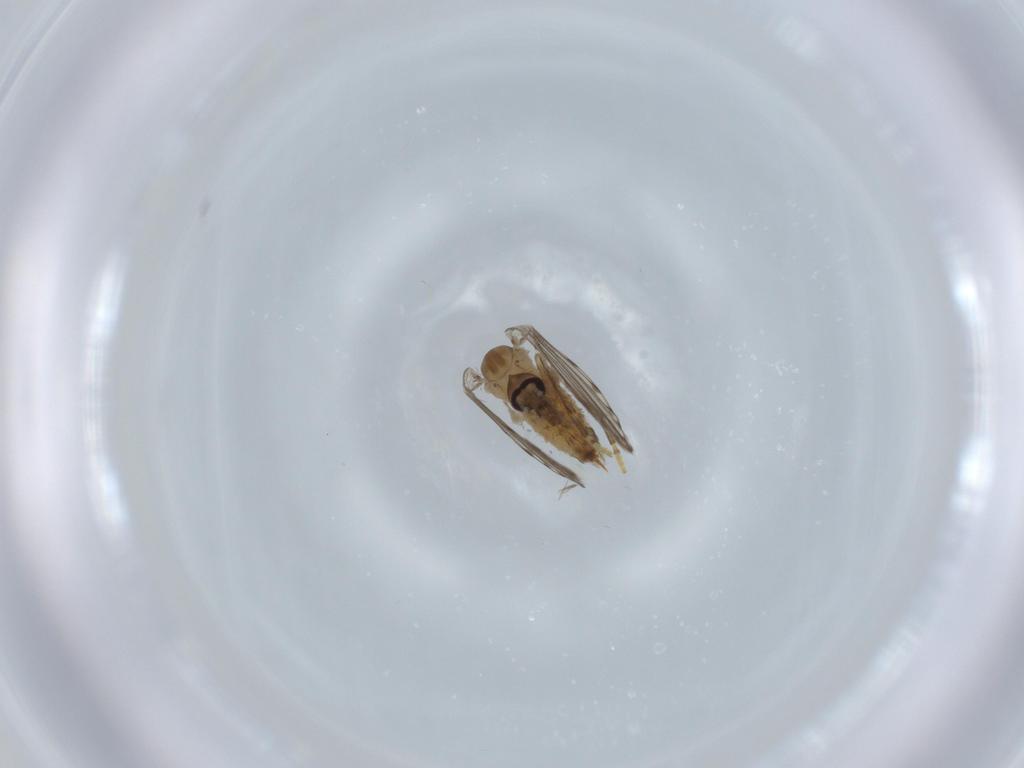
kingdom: Animalia
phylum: Arthropoda
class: Insecta
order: Diptera
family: Psychodidae
